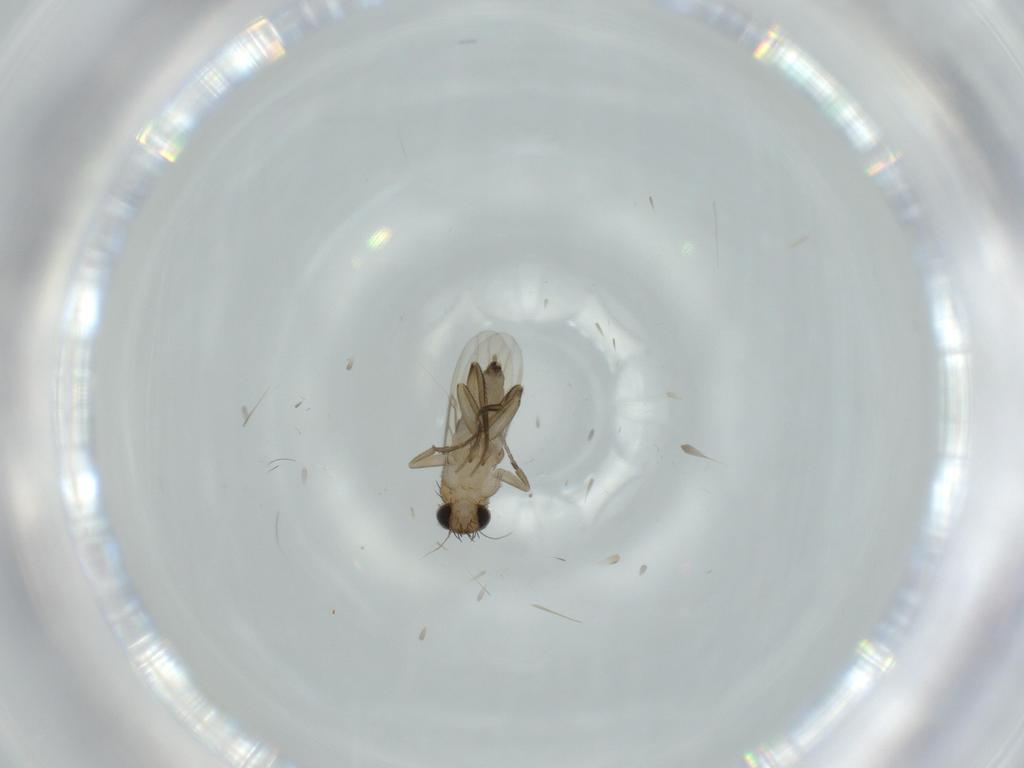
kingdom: Animalia
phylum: Arthropoda
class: Insecta
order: Diptera
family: Phoridae
